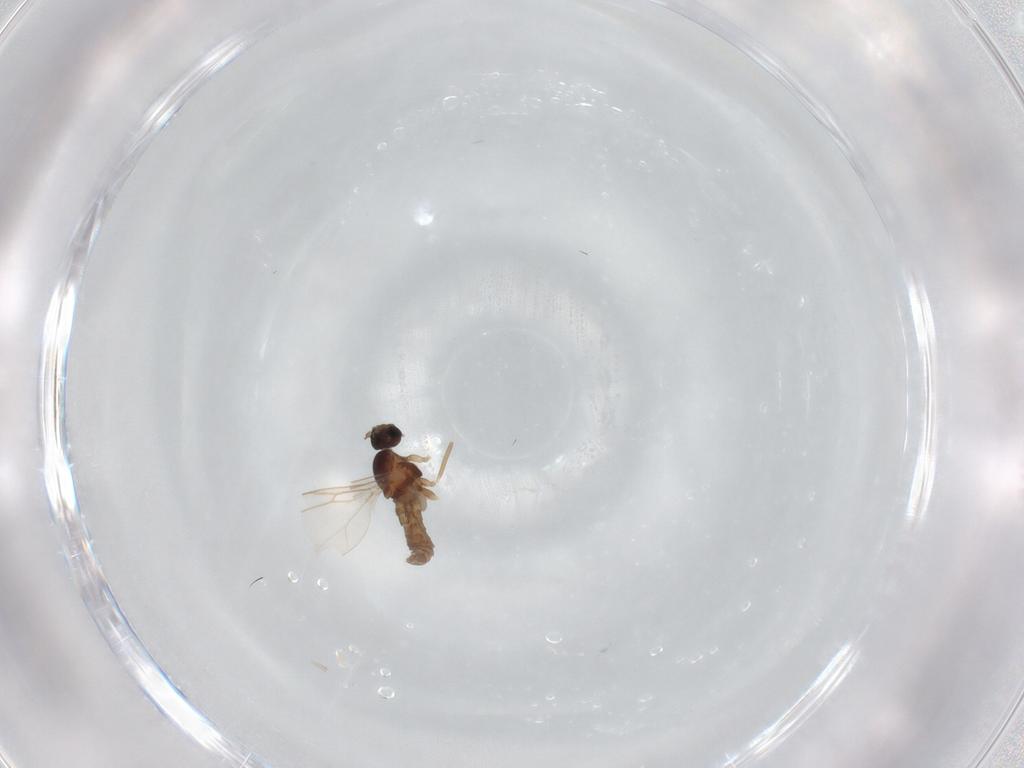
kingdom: Animalia
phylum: Arthropoda
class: Insecta
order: Diptera
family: Cecidomyiidae
